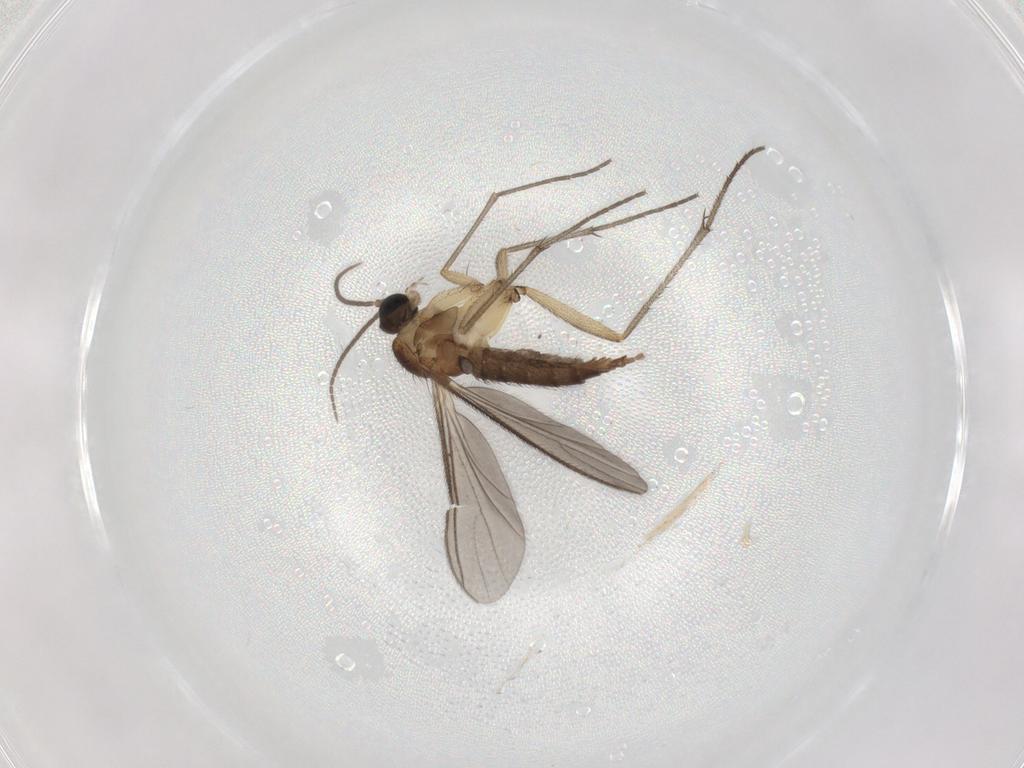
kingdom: Animalia
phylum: Arthropoda
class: Insecta
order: Diptera
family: Sciaridae
